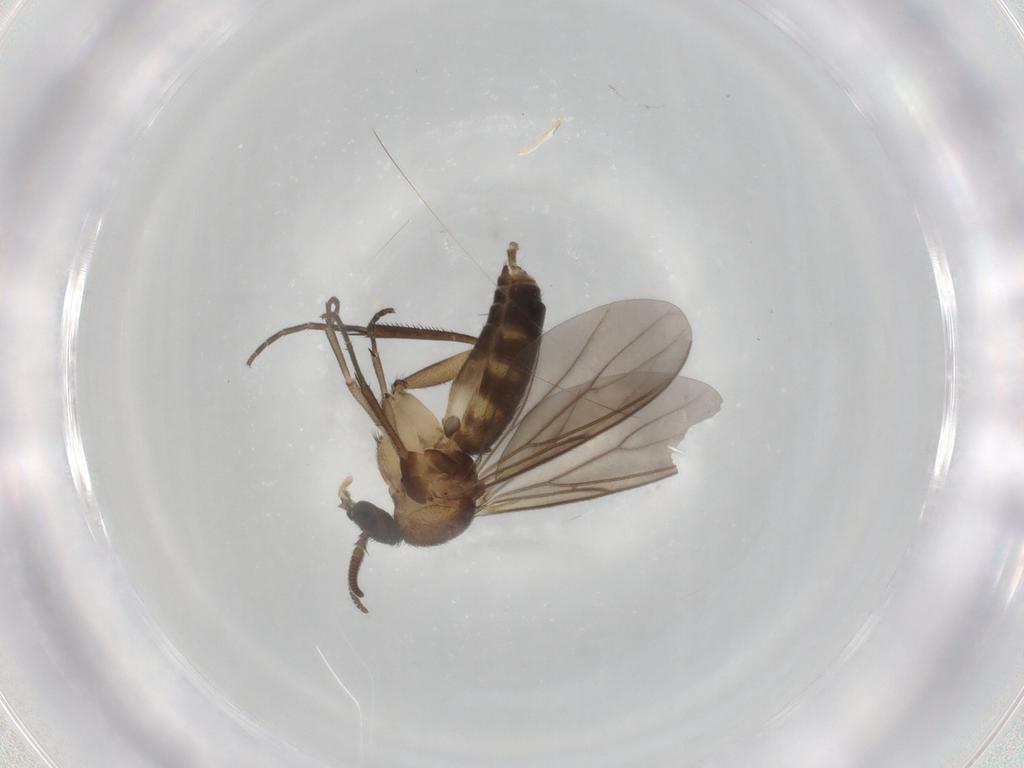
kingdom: Animalia
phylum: Arthropoda
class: Insecta
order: Diptera
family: Mycetophilidae
